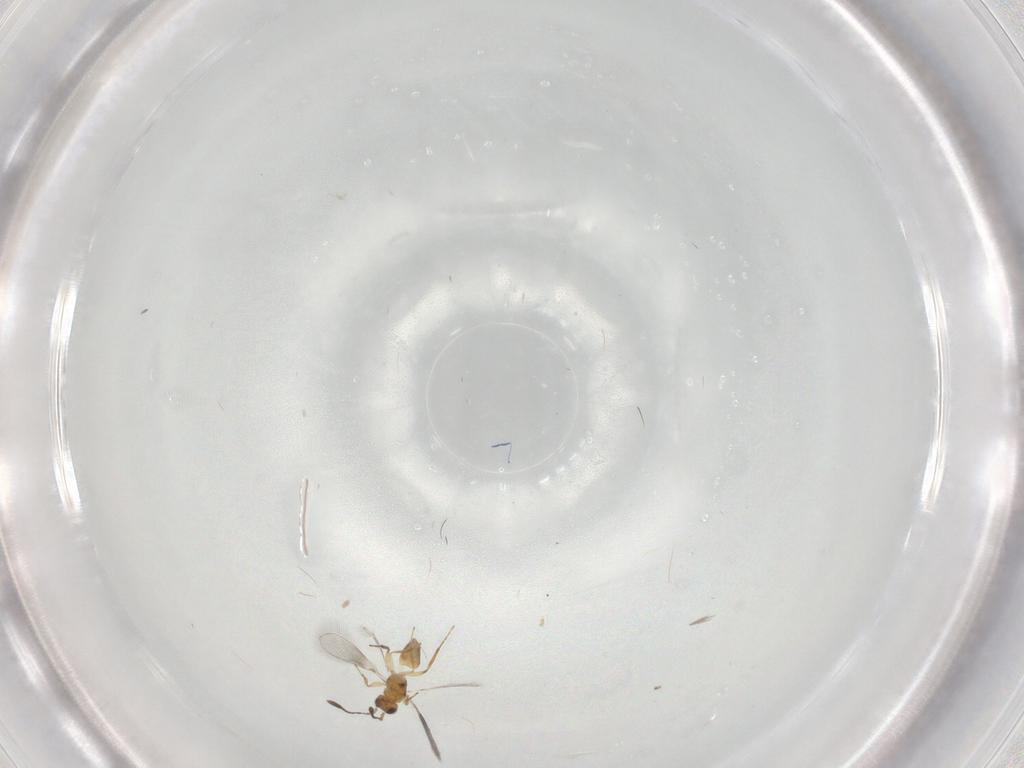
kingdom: Animalia
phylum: Arthropoda
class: Insecta
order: Hymenoptera
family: Mymaridae
